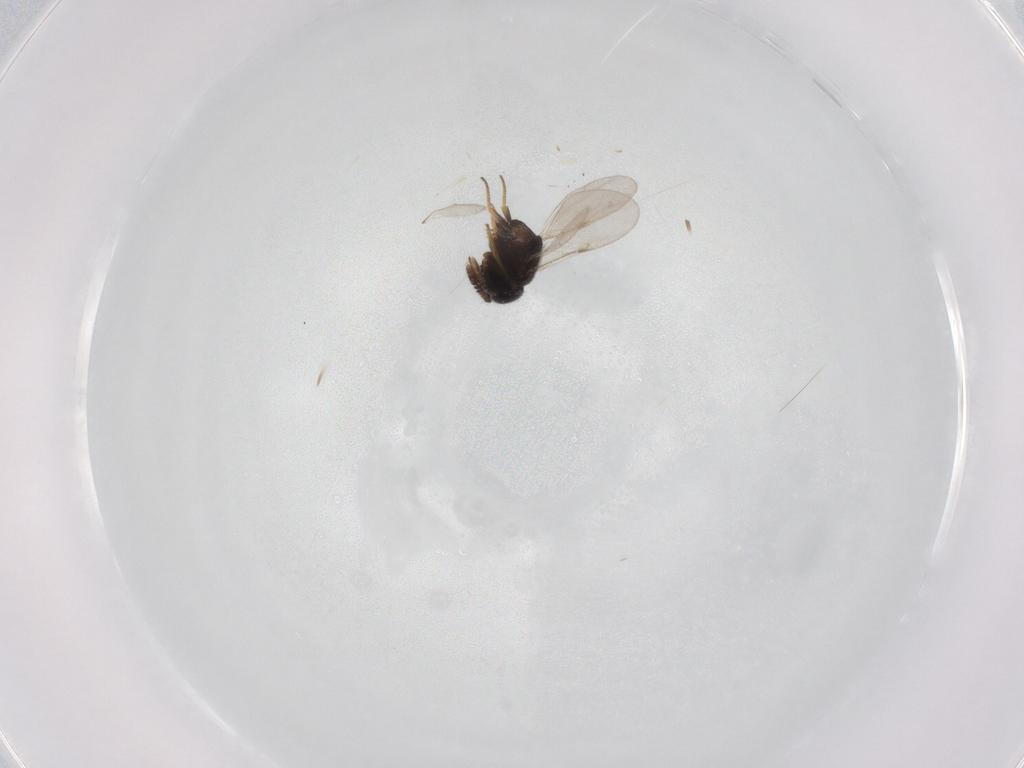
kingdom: Animalia
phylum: Arthropoda
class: Insecta
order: Hymenoptera
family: Encyrtidae
